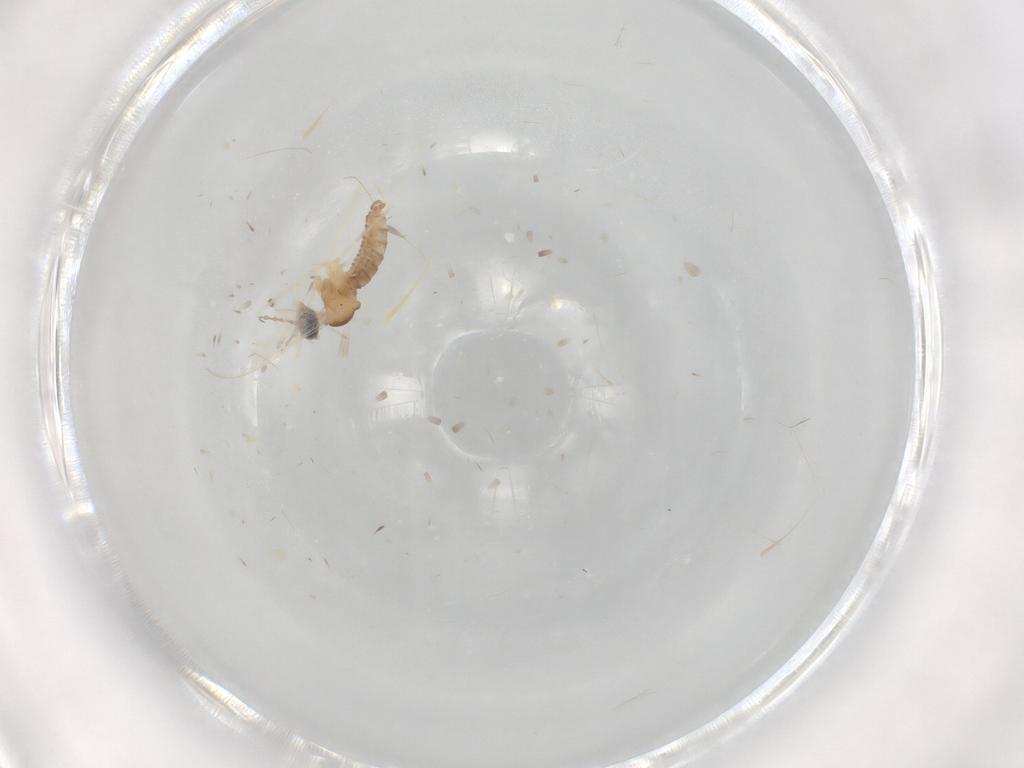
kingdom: Animalia
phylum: Arthropoda
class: Insecta
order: Diptera
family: Cecidomyiidae
